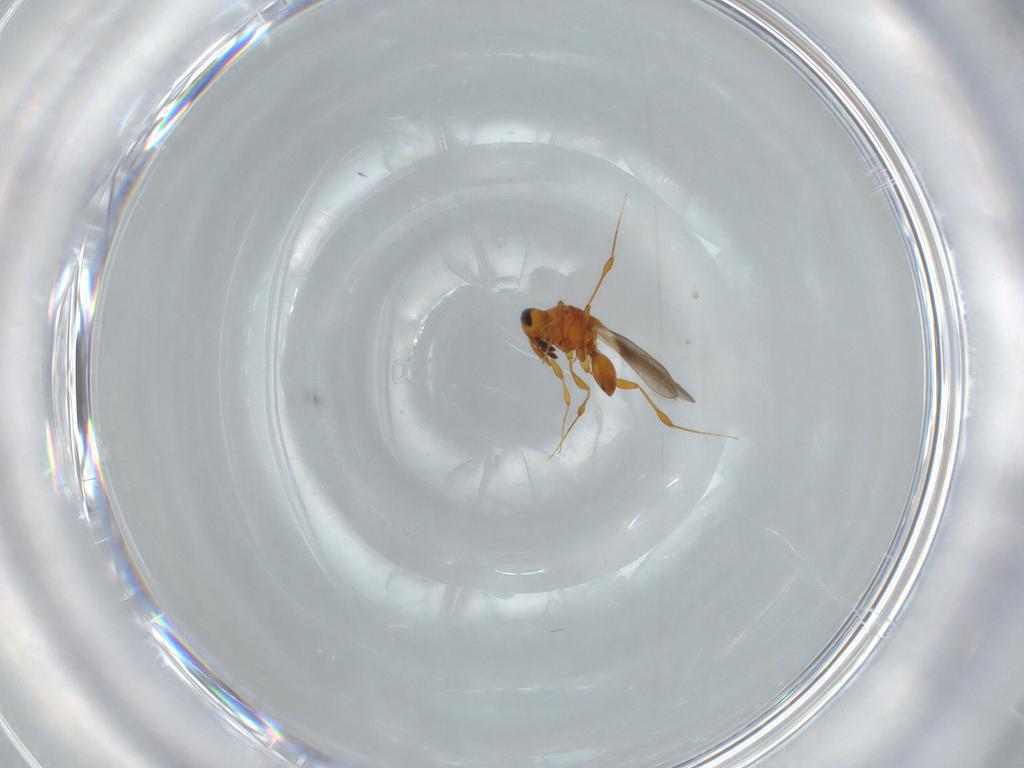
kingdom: Animalia
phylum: Arthropoda
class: Insecta
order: Hymenoptera
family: Platygastridae
